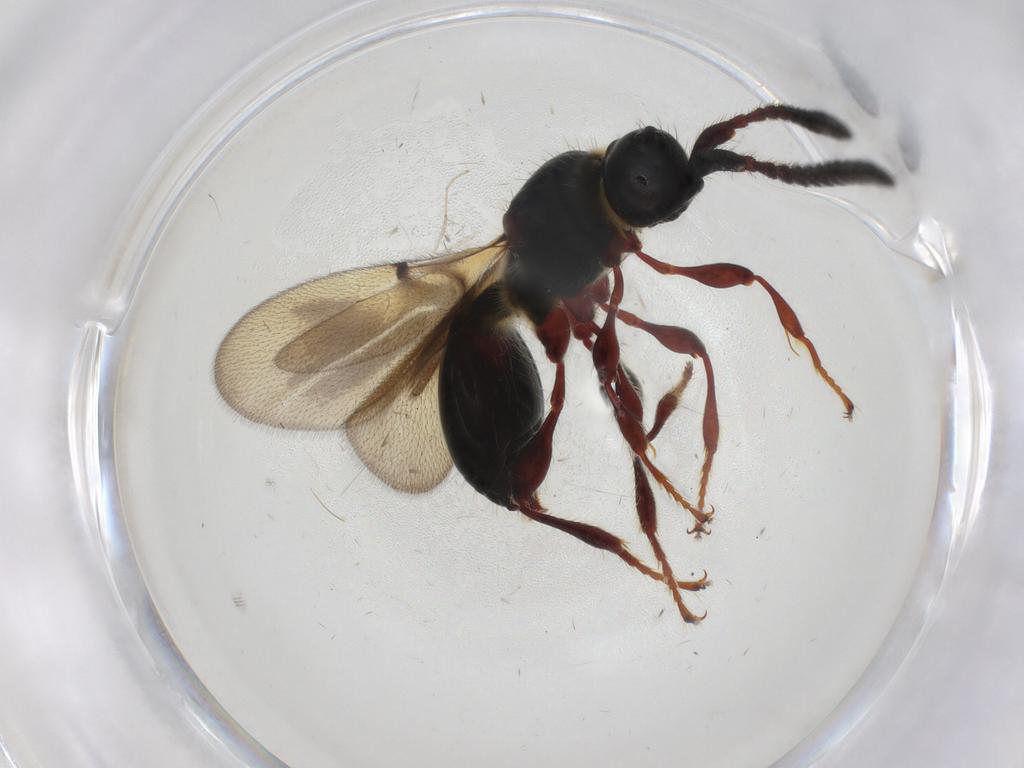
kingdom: Animalia
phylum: Arthropoda
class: Insecta
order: Hymenoptera
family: Diapriidae
